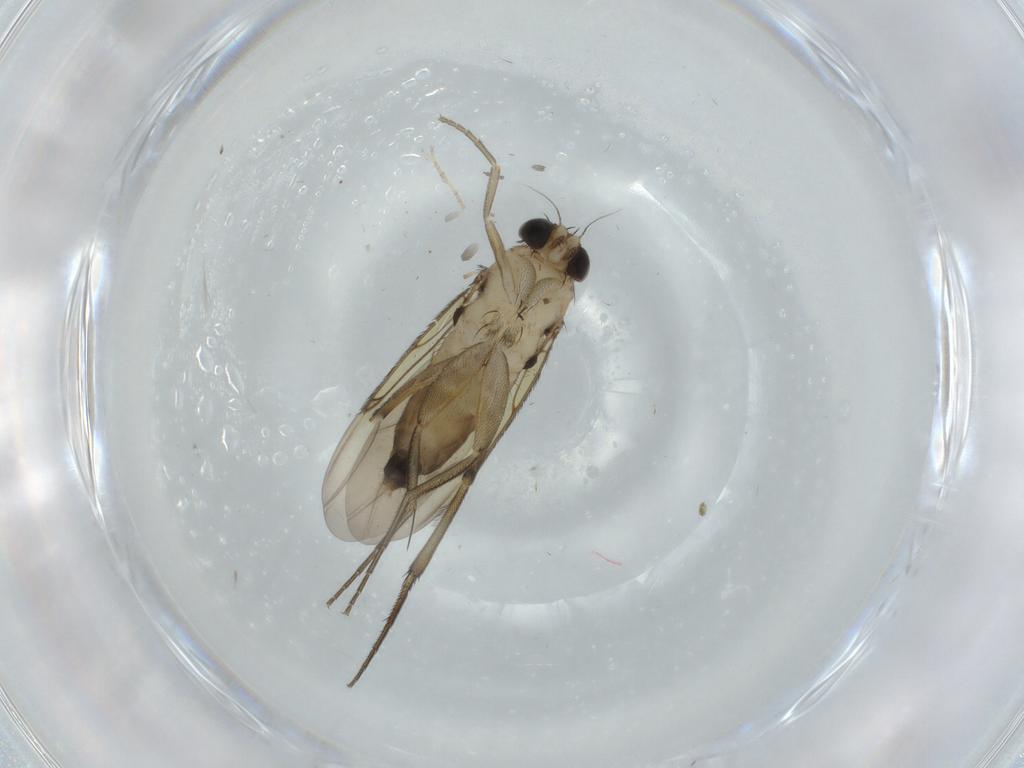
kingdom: Animalia
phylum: Arthropoda
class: Insecta
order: Diptera
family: Phoridae
